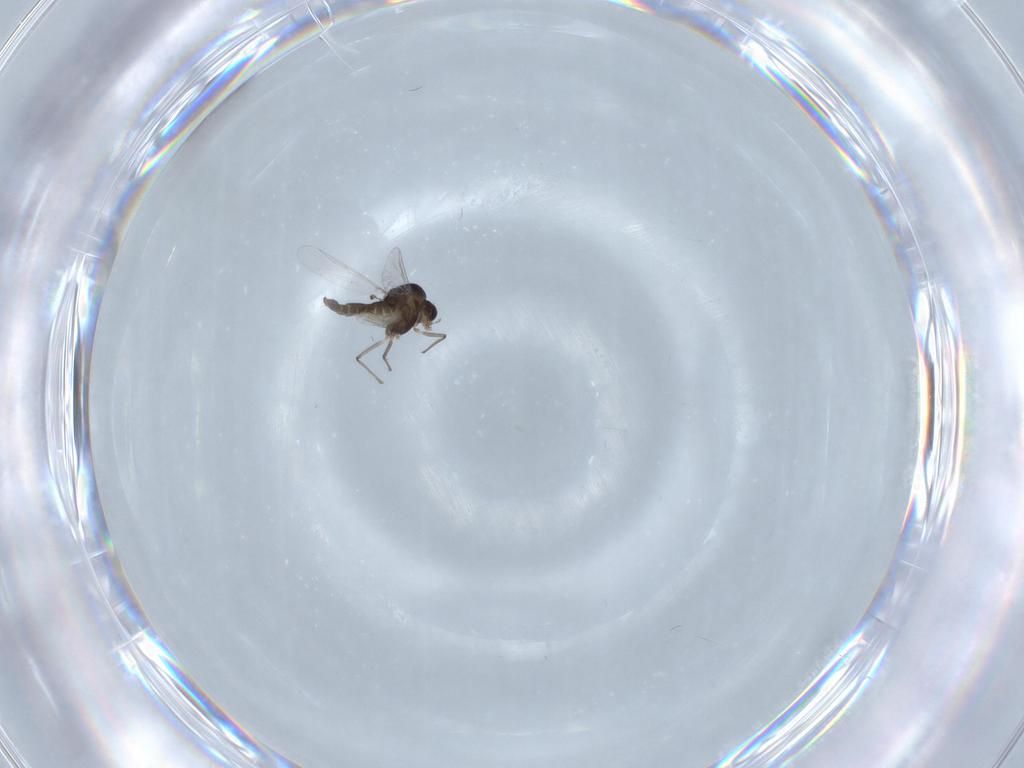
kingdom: Animalia
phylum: Arthropoda
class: Insecta
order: Diptera
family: Chironomidae
